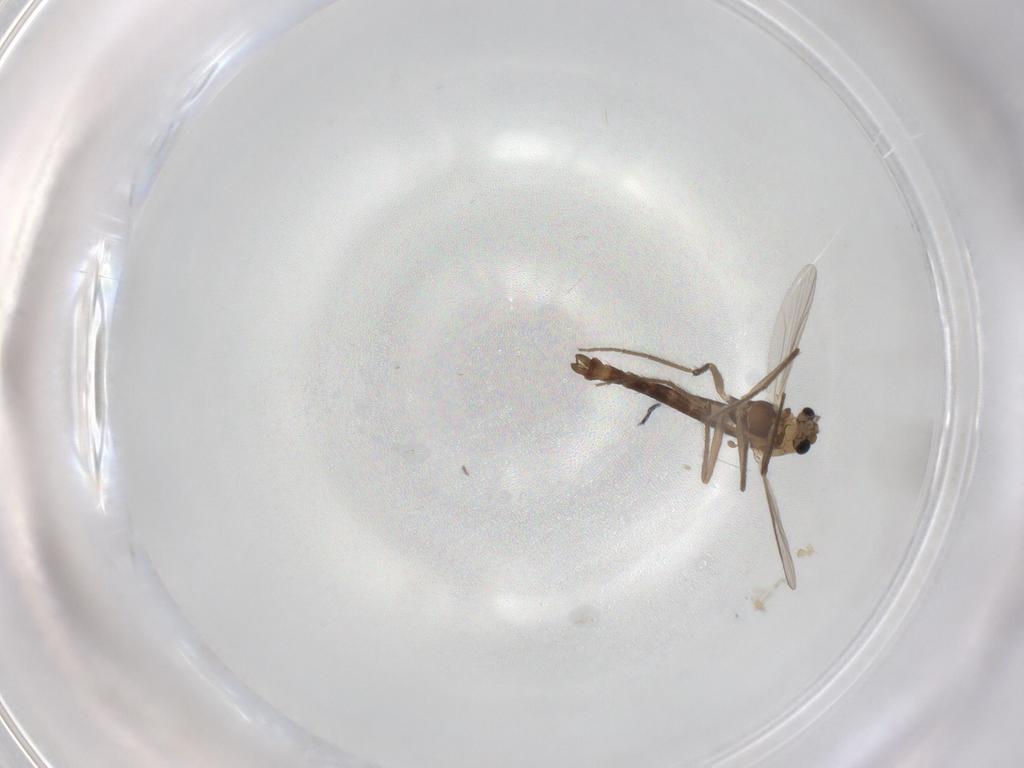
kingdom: Animalia
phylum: Arthropoda
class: Insecta
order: Diptera
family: Chironomidae
